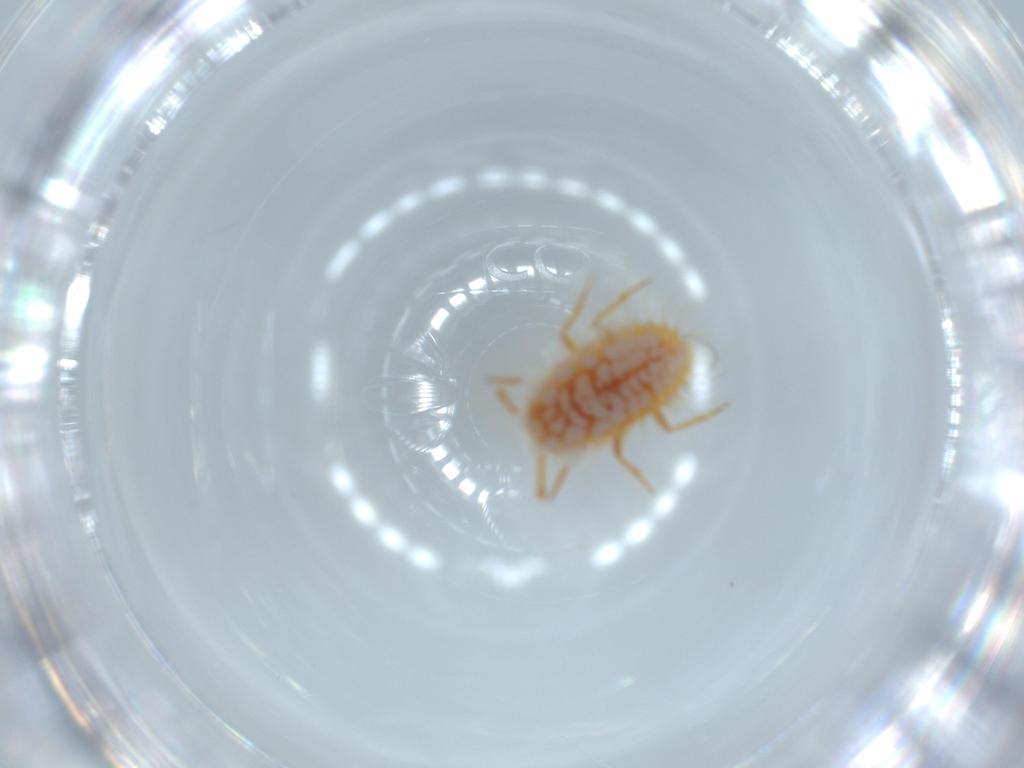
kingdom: Animalia
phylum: Arthropoda
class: Insecta
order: Hemiptera
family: Coccoidea_incertae_sedis
